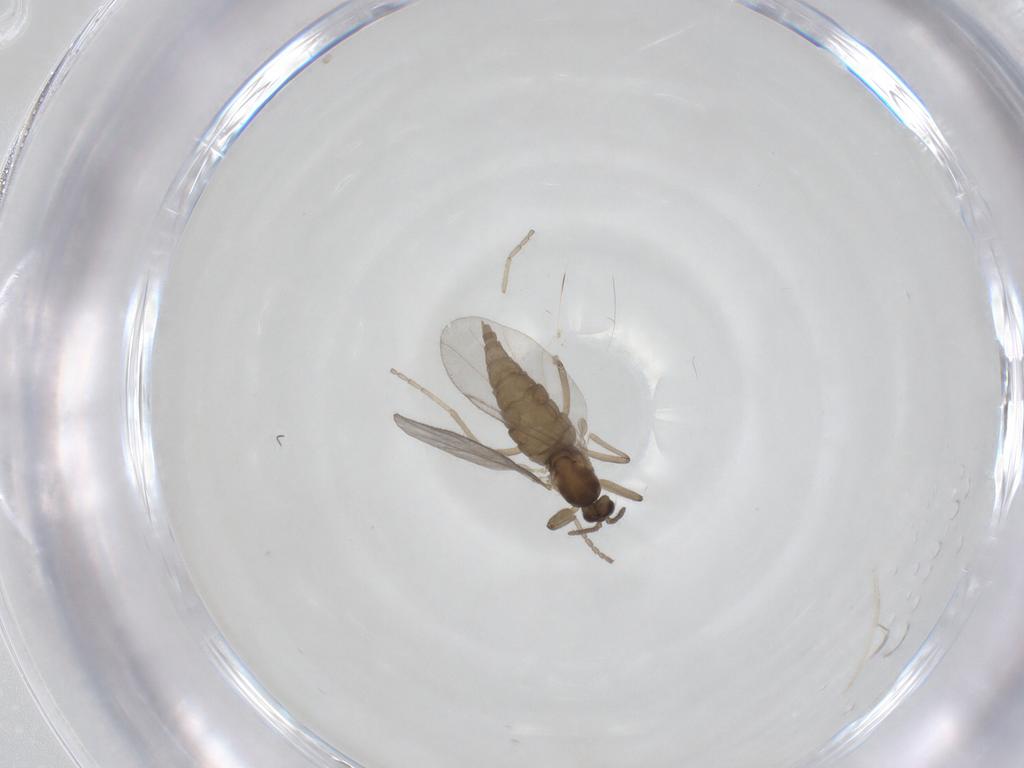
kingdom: Animalia
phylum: Arthropoda
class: Insecta
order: Diptera
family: Cecidomyiidae
